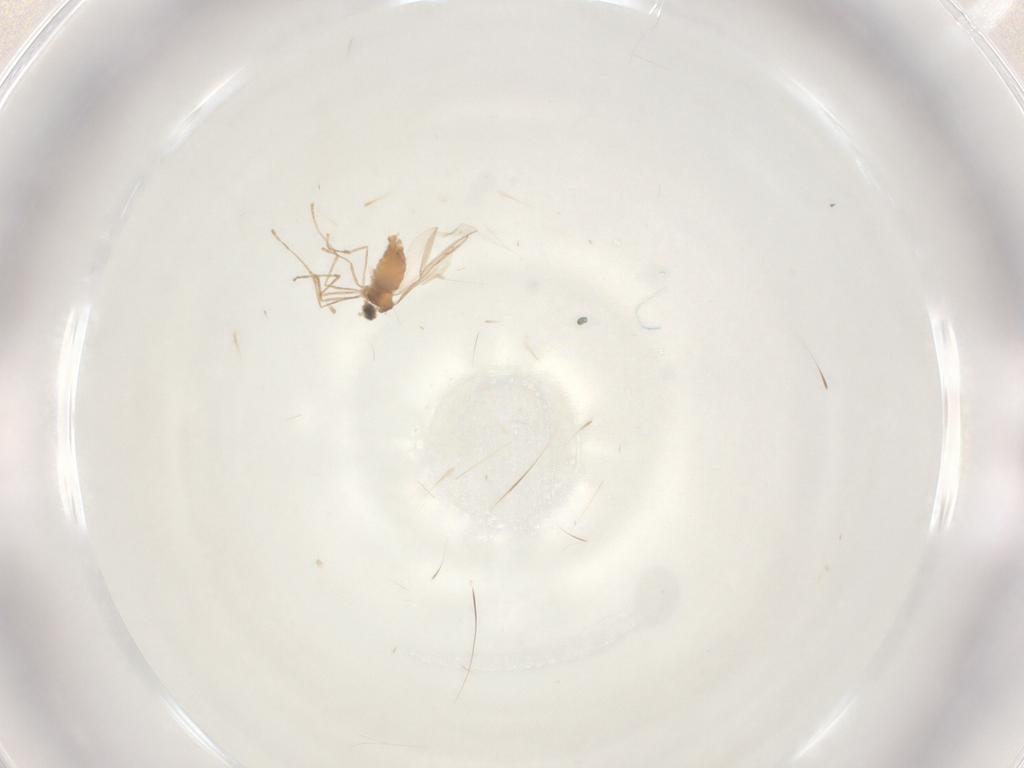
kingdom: Animalia
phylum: Arthropoda
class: Insecta
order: Diptera
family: Cecidomyiidae
